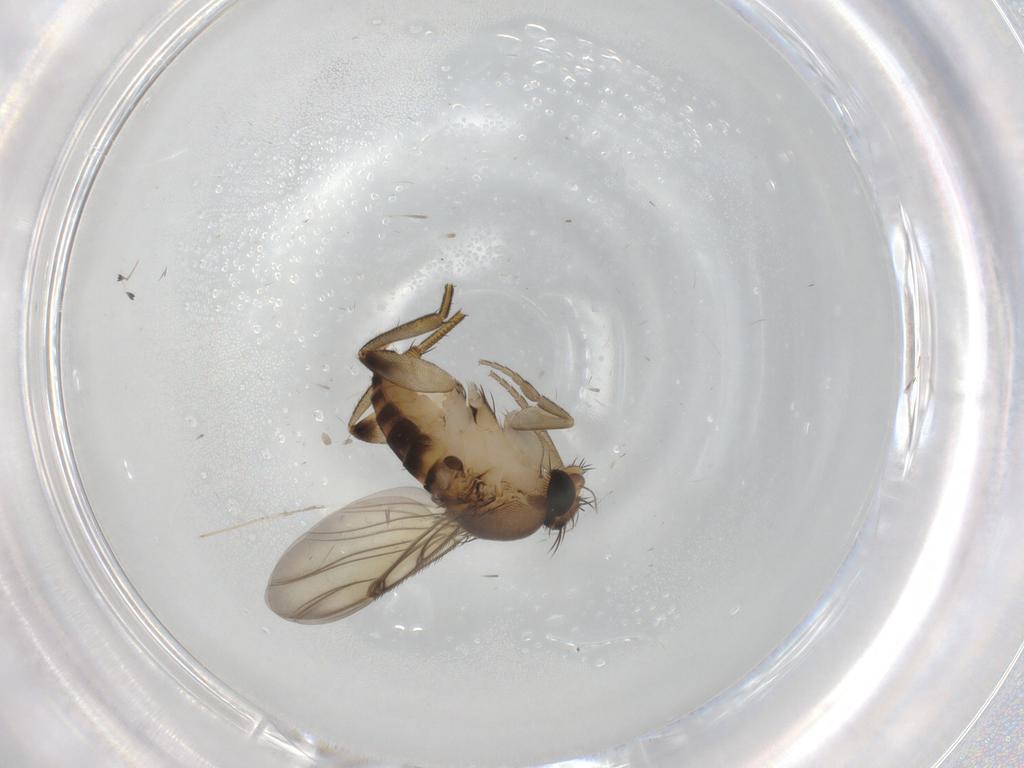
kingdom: Animalia
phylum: Arthropoda
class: Insecta
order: Diptera
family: Phoridae
